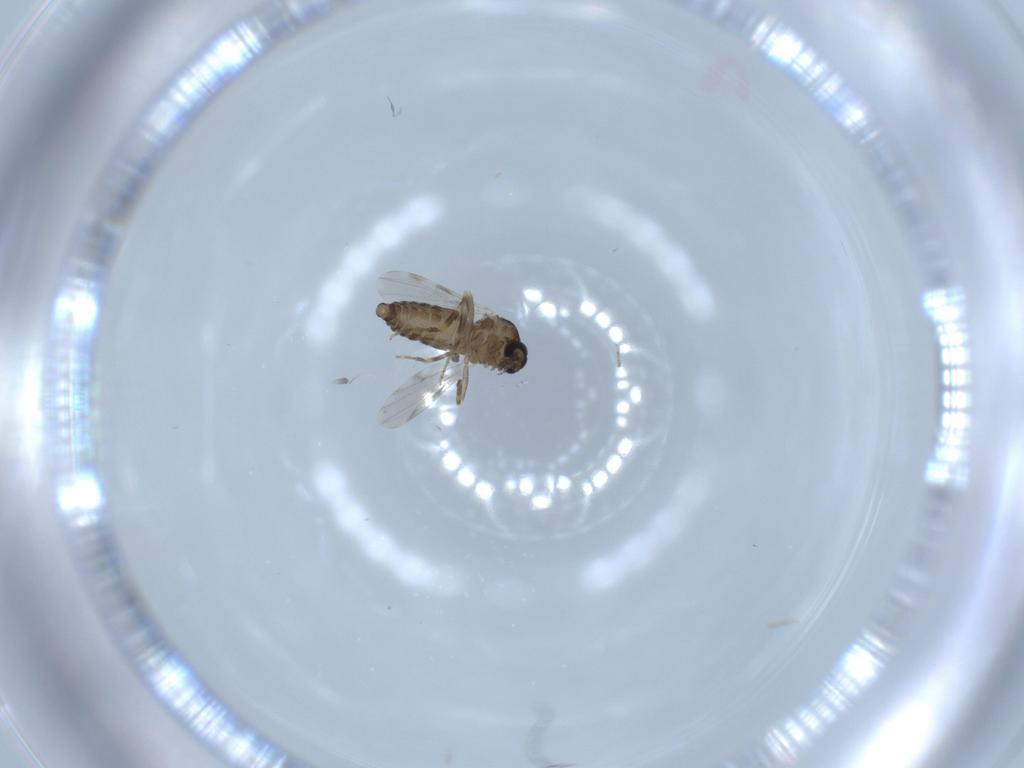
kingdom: Animalia
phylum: Arthropoda
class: Insecta
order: Diptera
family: Ceratopogonidae
